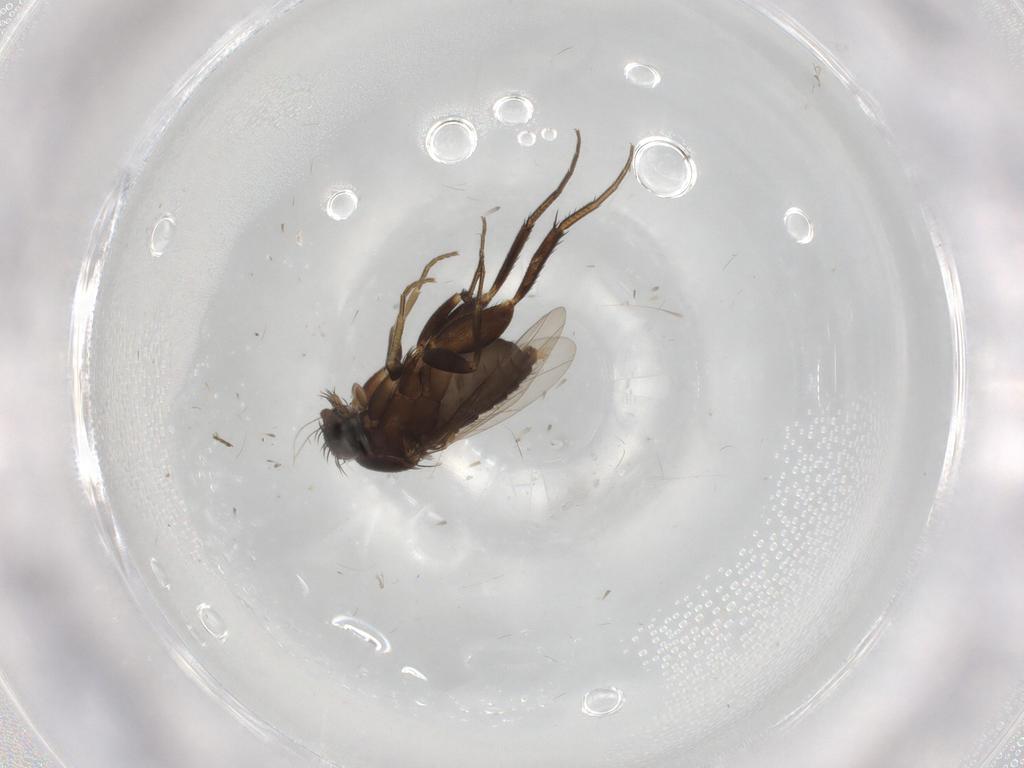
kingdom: Animalia
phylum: Arthropoda
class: Insecta
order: Diptera
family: Phoridae
